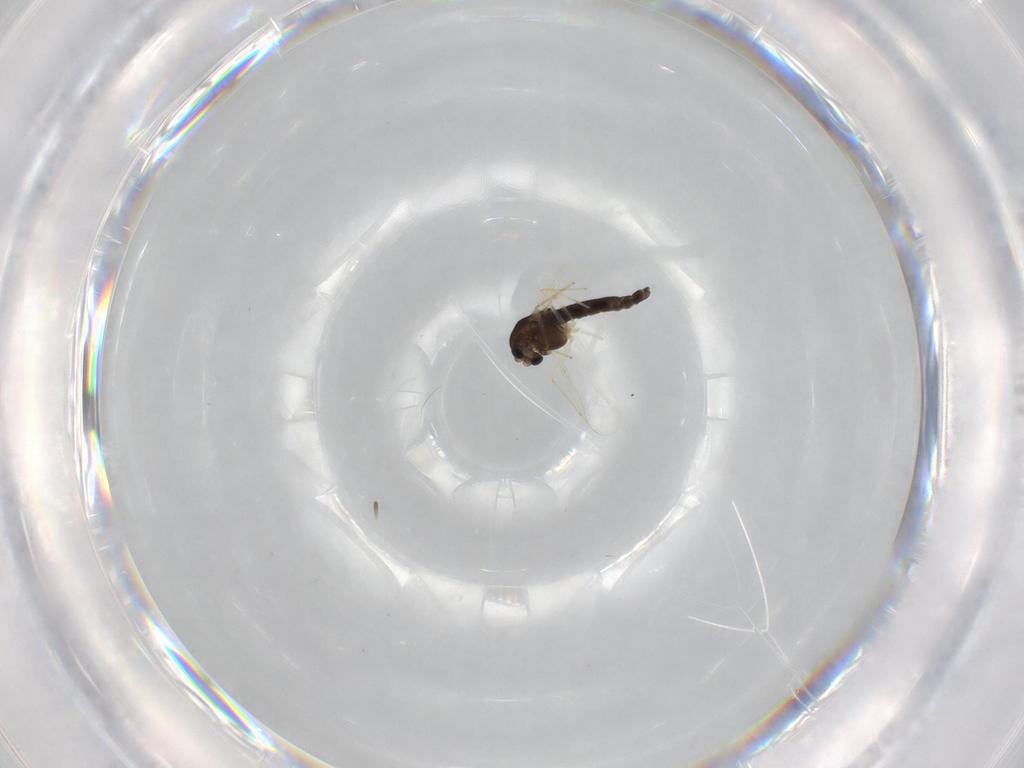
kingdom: Animalia
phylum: Arthropoda
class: Insecta
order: Diptera
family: Chironomidae
